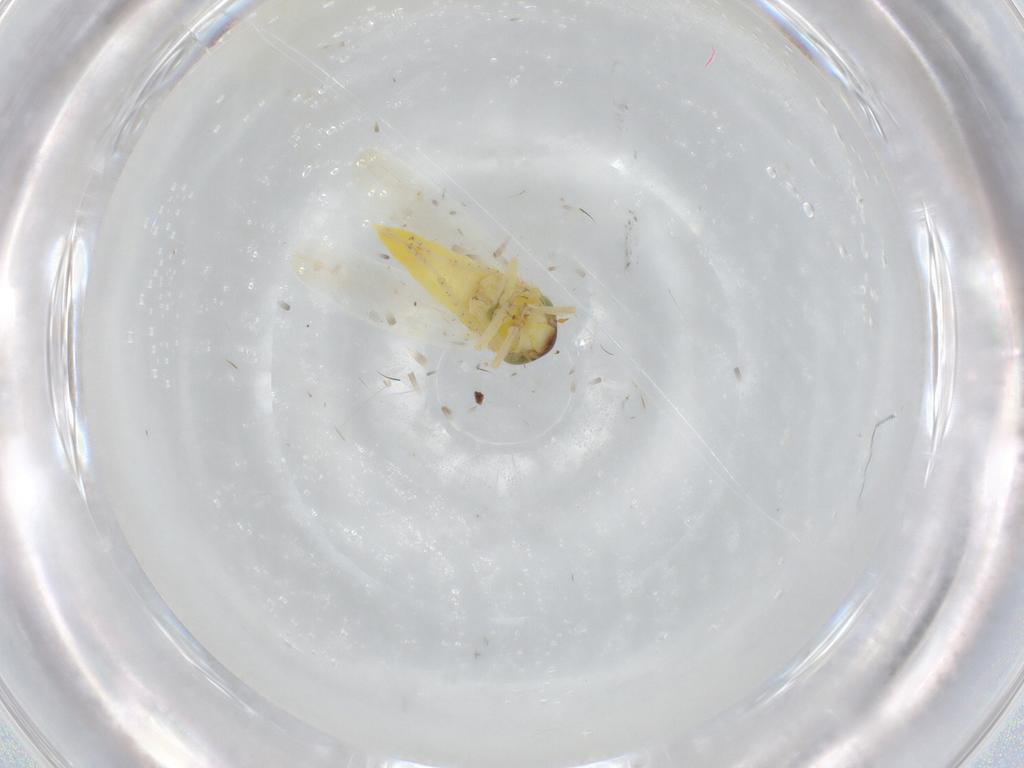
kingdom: Animalia
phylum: Arthropoda
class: Insecta
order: Hemiptera
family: Cicadellidae
